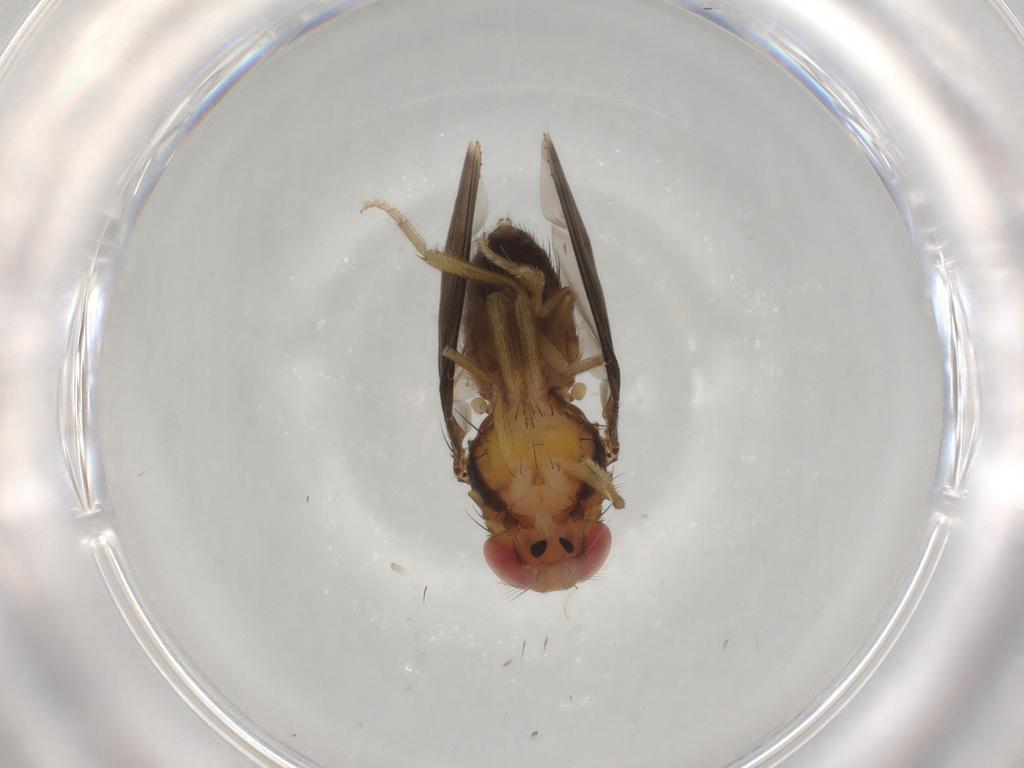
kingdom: Animalia
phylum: Arthropoda
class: Insecta
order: Diptera
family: Drosophilidae
